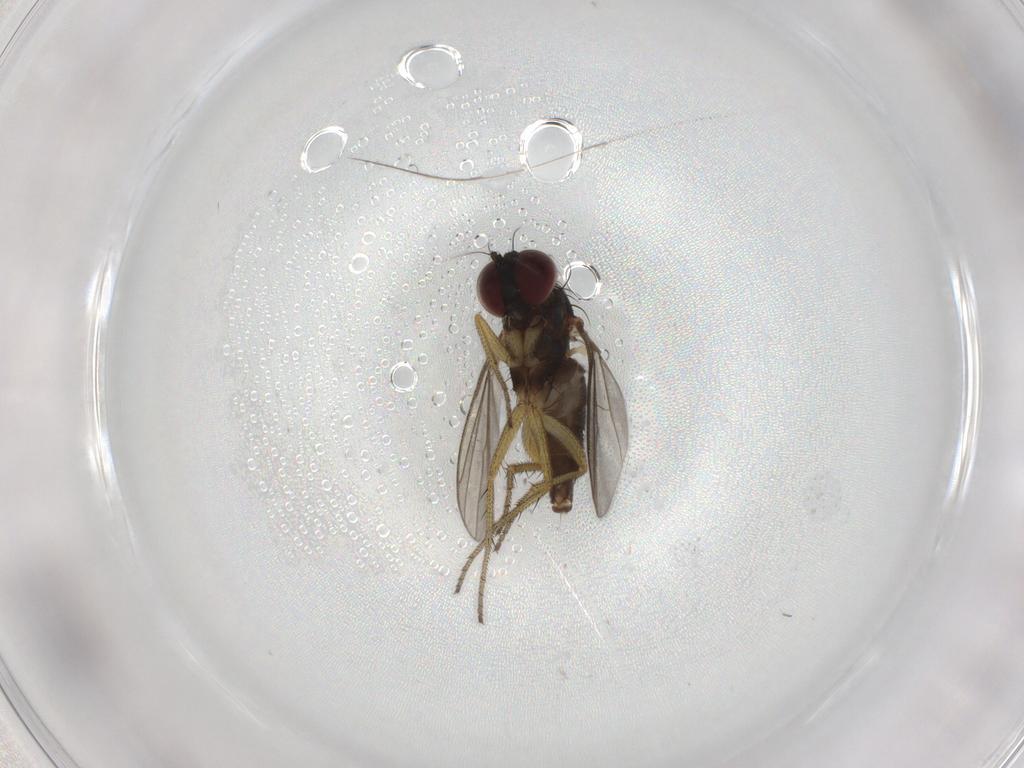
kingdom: Animalia
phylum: Arthropoda
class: Insecta
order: Diptera
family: Dolichopodidae
